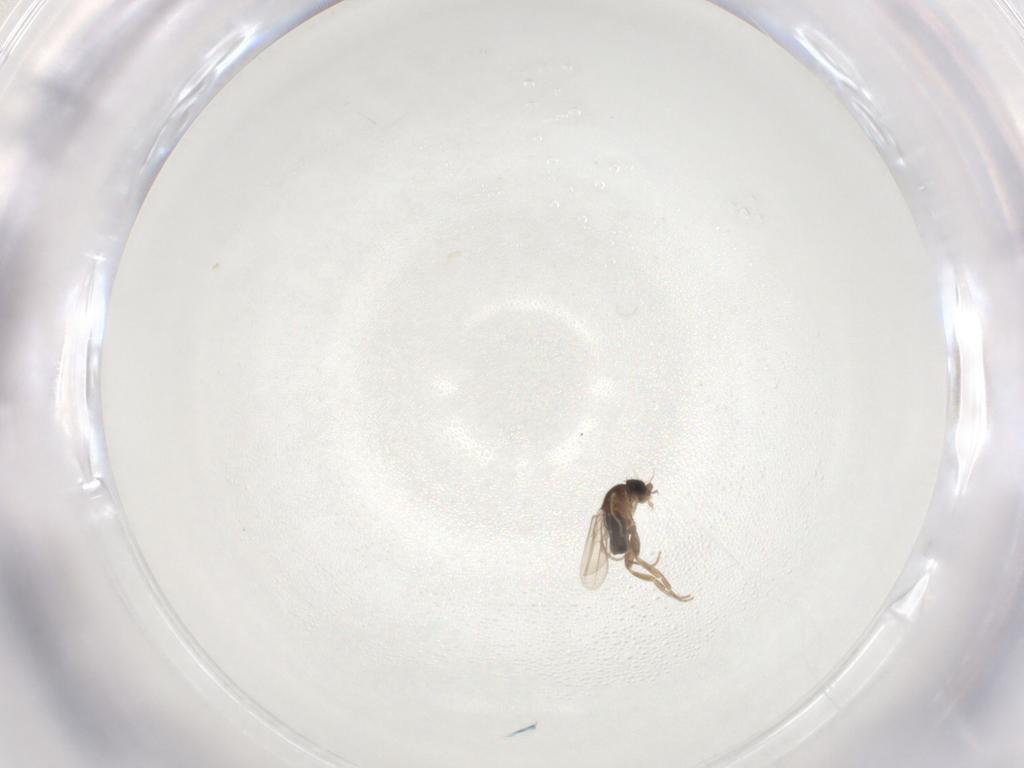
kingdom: Animalia
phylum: Arthropoda
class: Insecta
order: Diptera
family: Phoridae
